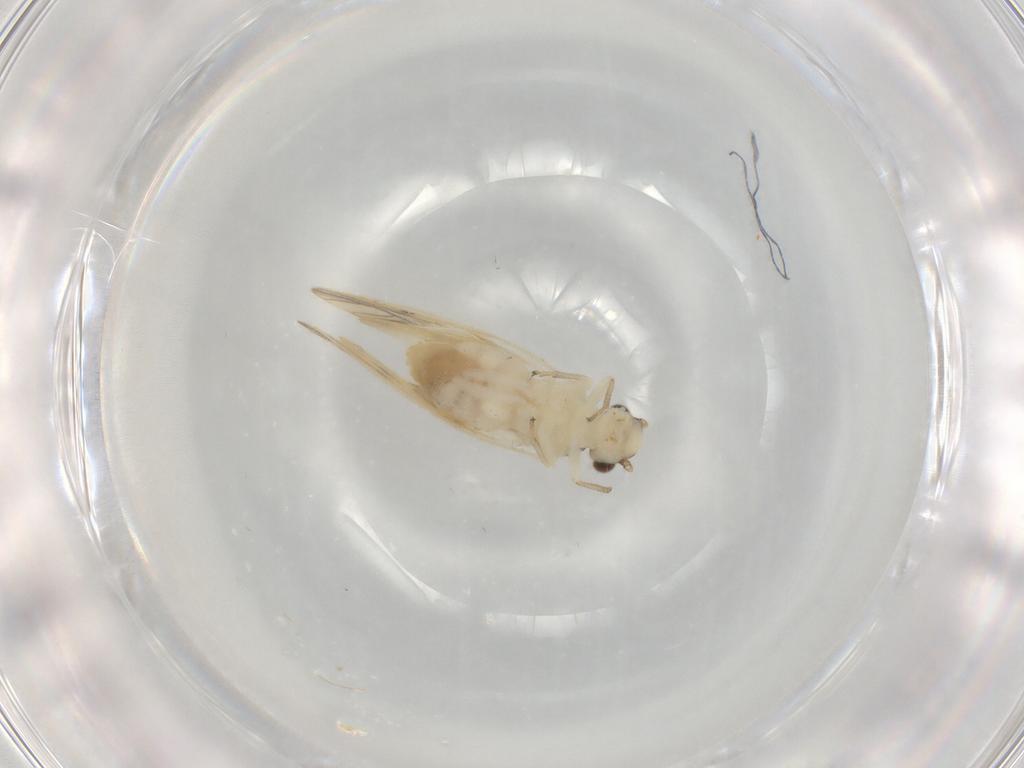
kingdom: Animalia
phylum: Arthropoda
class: Insecta
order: Psocodea
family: Caeciliusidae
